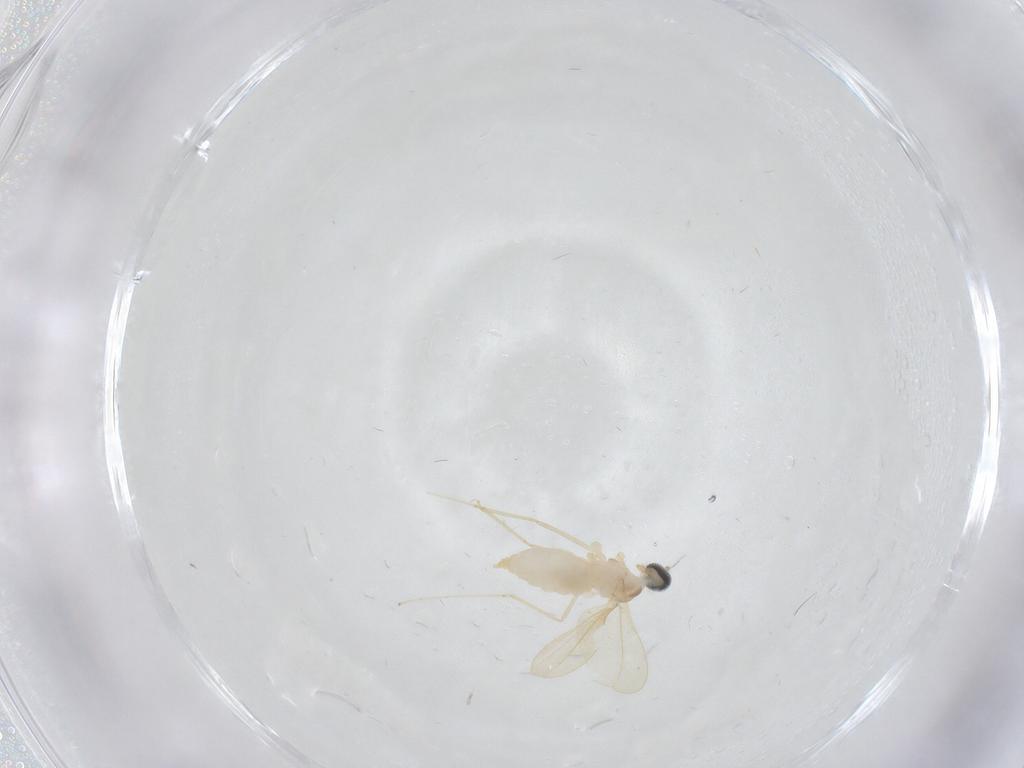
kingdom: Animalia
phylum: Arthropoda
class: Insecta
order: Diptera
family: Cecidomyiidae
